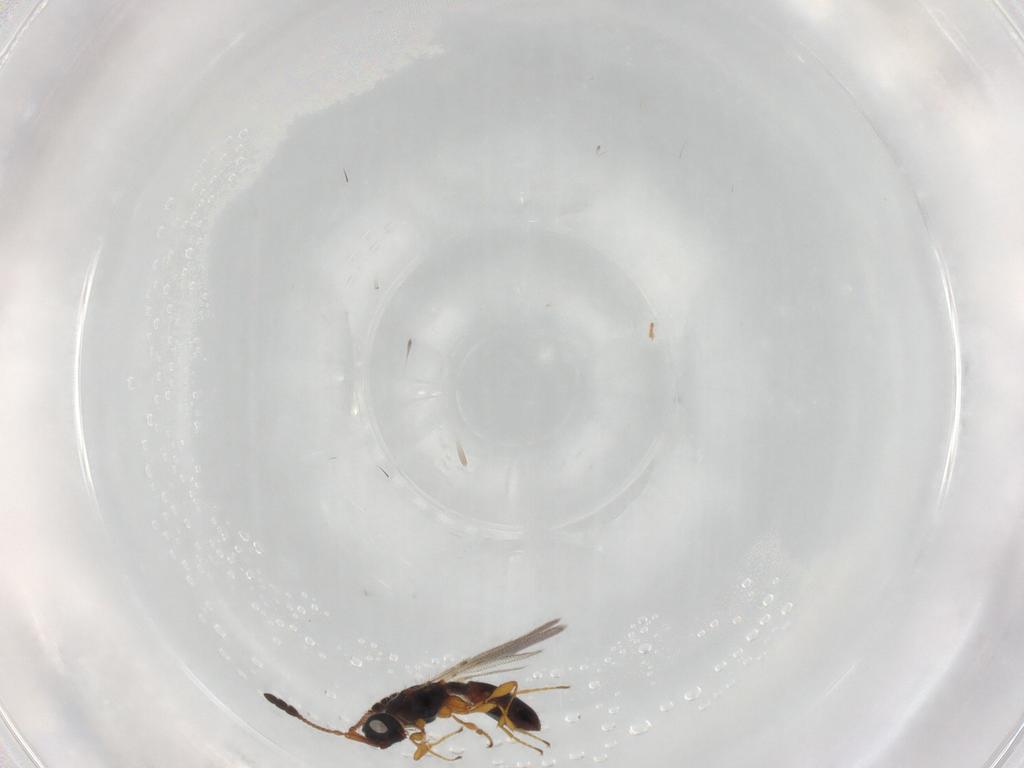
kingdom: Animalia
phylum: Arthropoda
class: Insecta
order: Hymenoptera
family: Diapriidae
